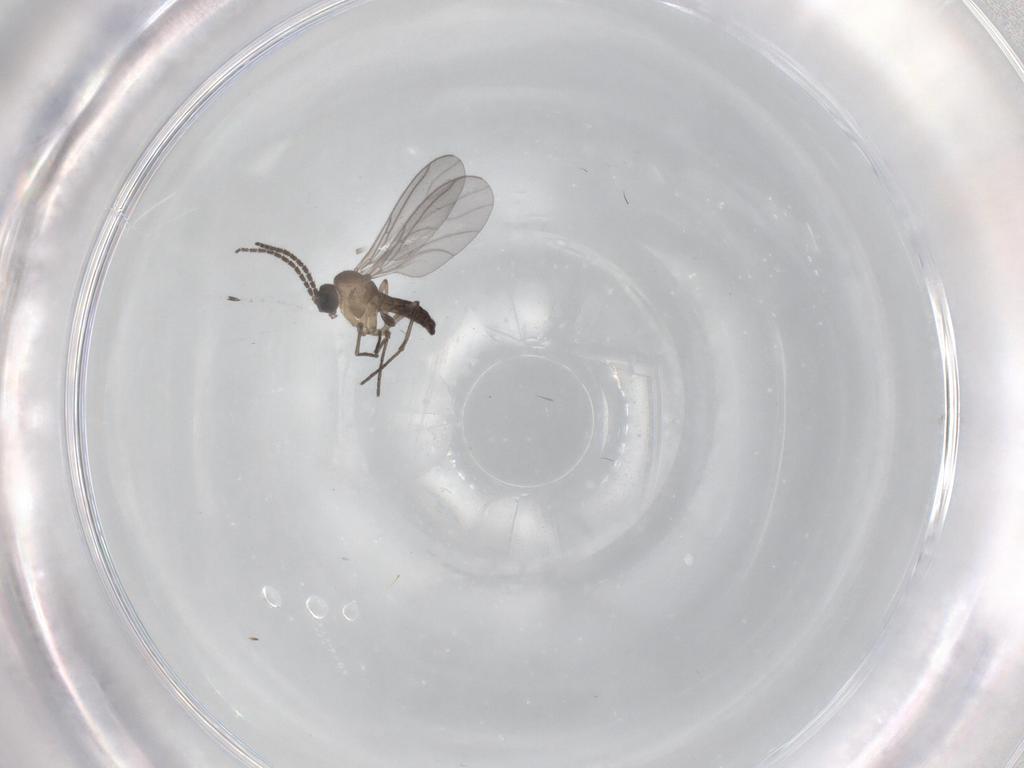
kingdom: Animalia
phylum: Arthropoda
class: Insecta
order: Diptera
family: Sciaridae
